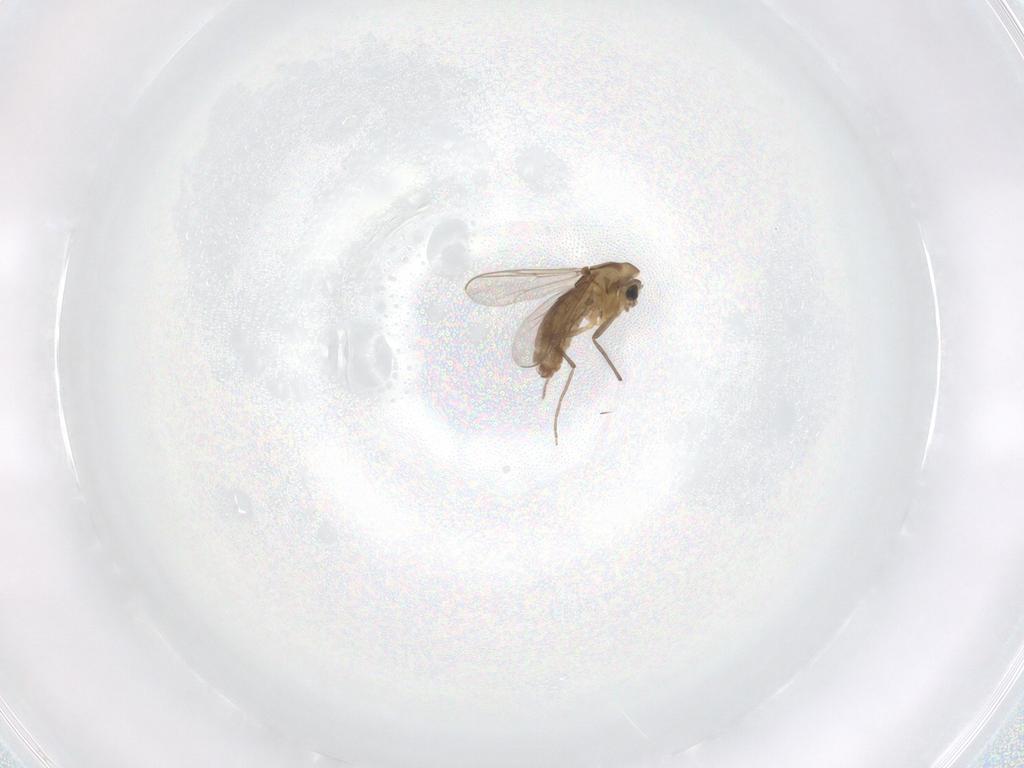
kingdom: Animalia
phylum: Arthropoda
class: Insecta
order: Diptera
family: Chironomidae
